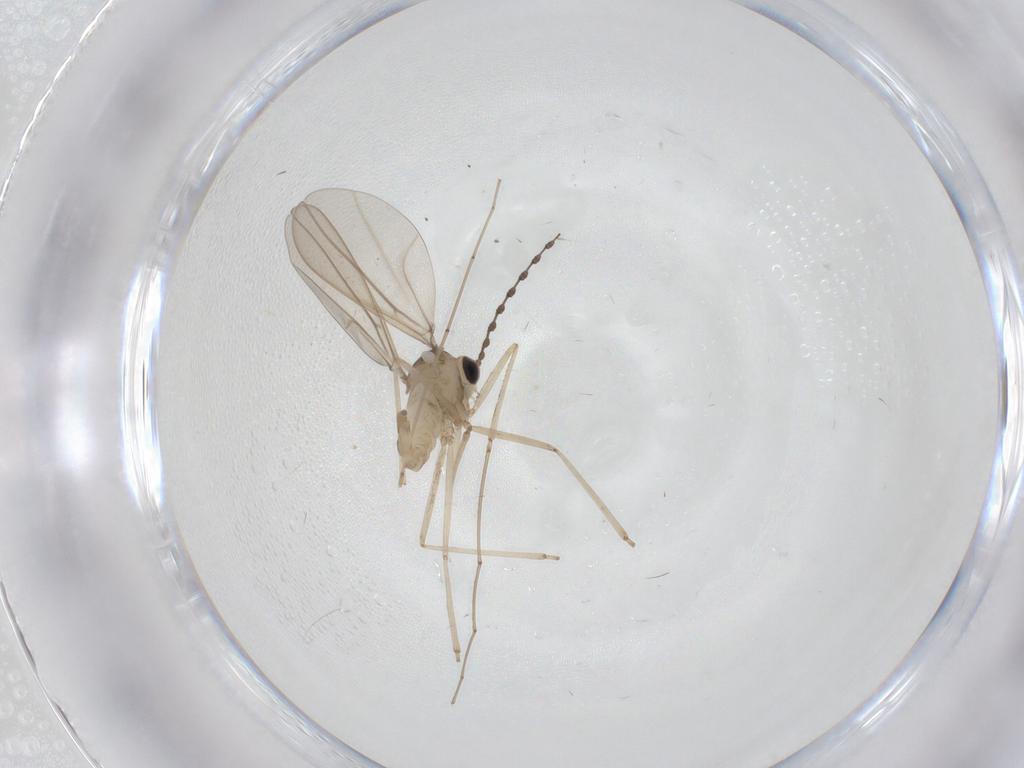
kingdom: Animalia
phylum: Arthropoda
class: Insecta
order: Diptera
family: Cecidomyiidae
